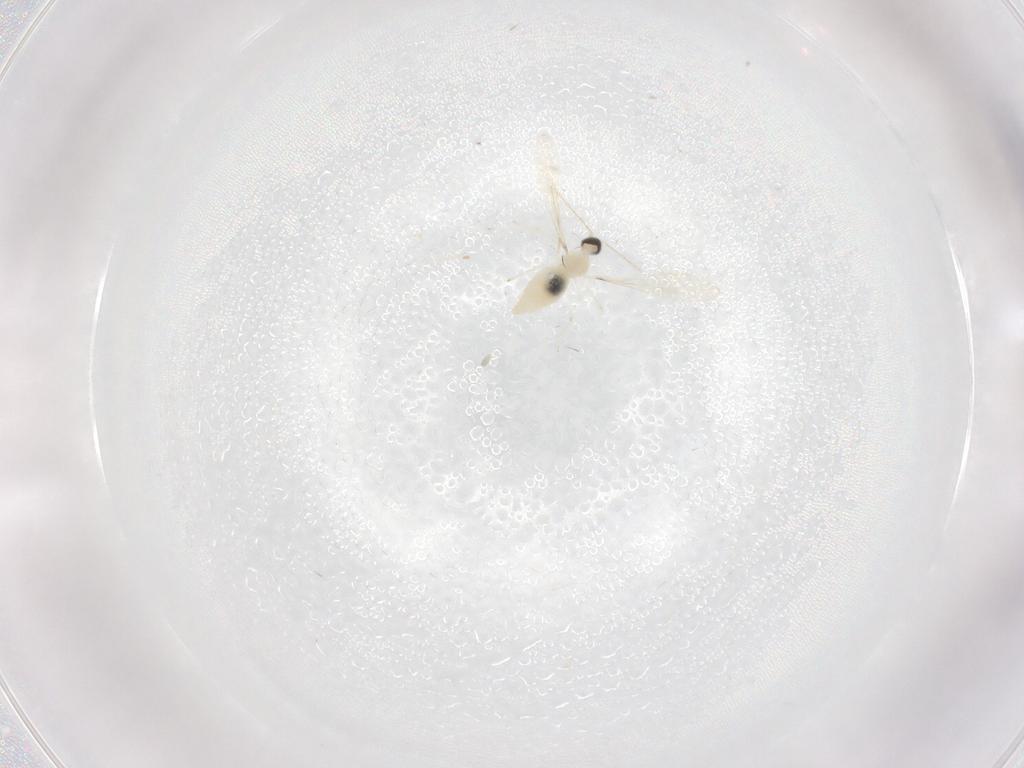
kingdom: Animalia
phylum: Arthropoda
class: Insecta
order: Diptera
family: Cecidomyiidae
